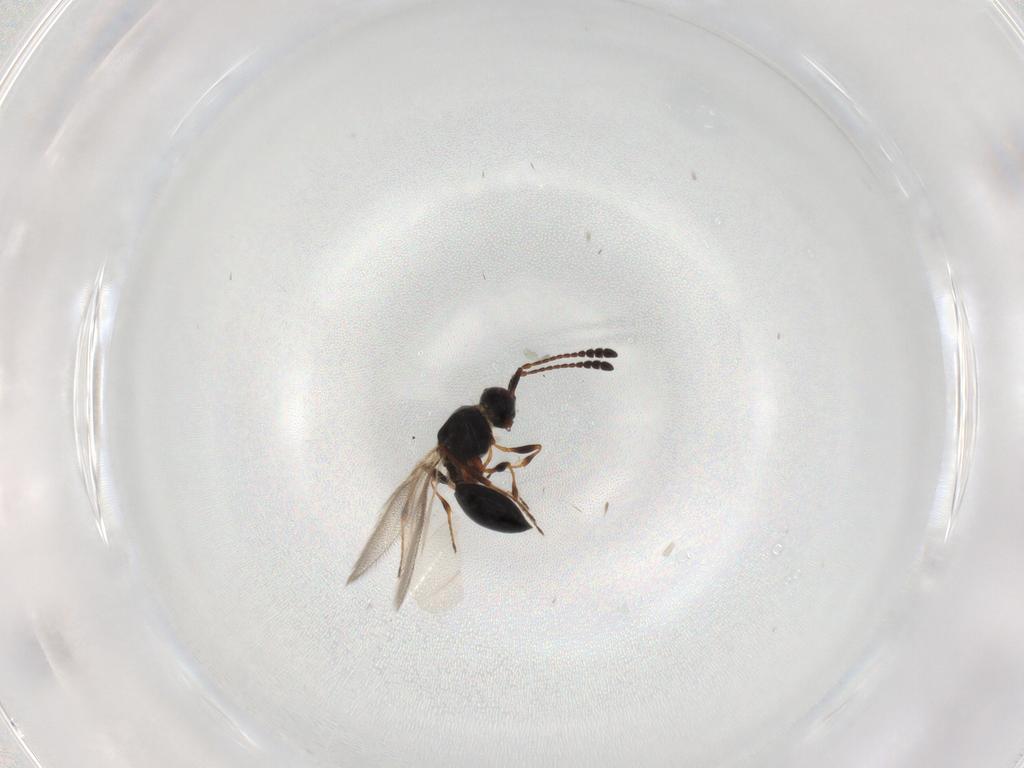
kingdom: Animalia
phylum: Arthropoda
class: Insecta
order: Hymenoptera
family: Diapriidae
